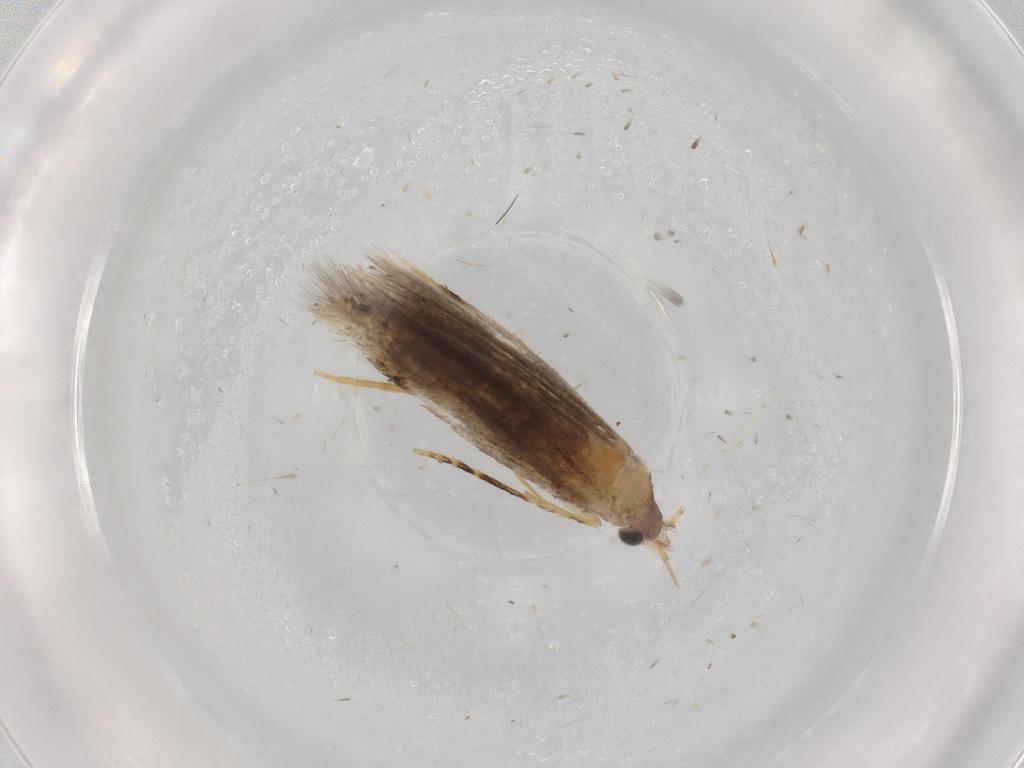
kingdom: Animalia
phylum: Arthropoda
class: Insecta
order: Lepidoptera
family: Tineidae
